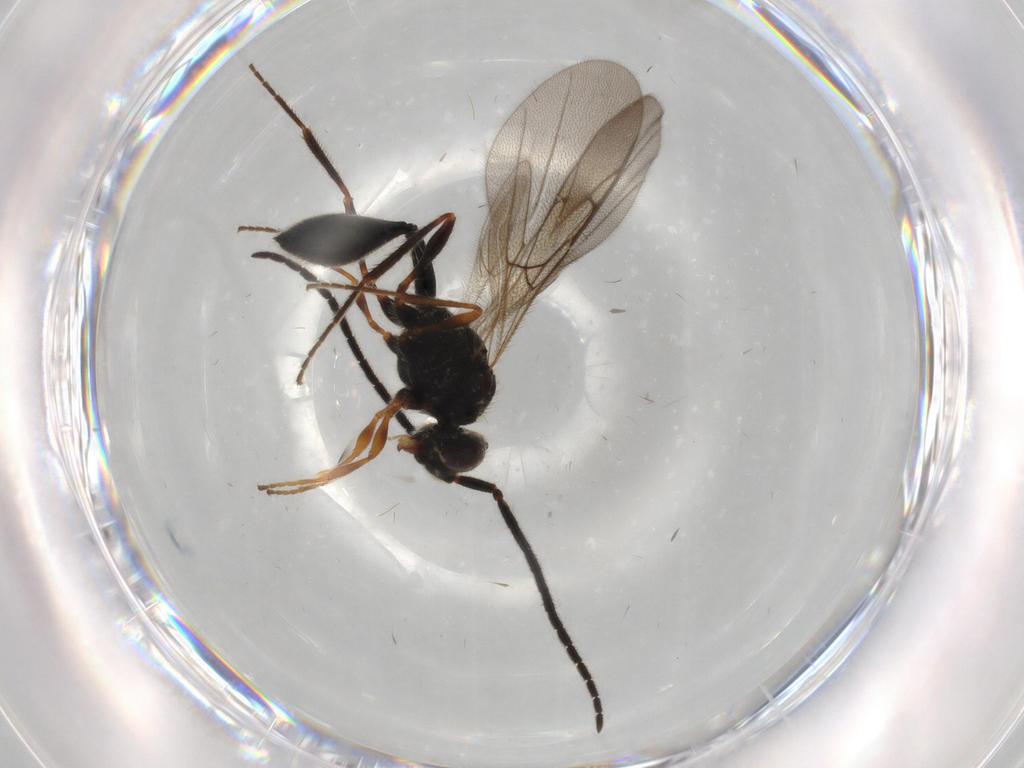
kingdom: Animalia
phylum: Arthropoda
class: Insecta
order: Hymenoptera
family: Diapriidae
